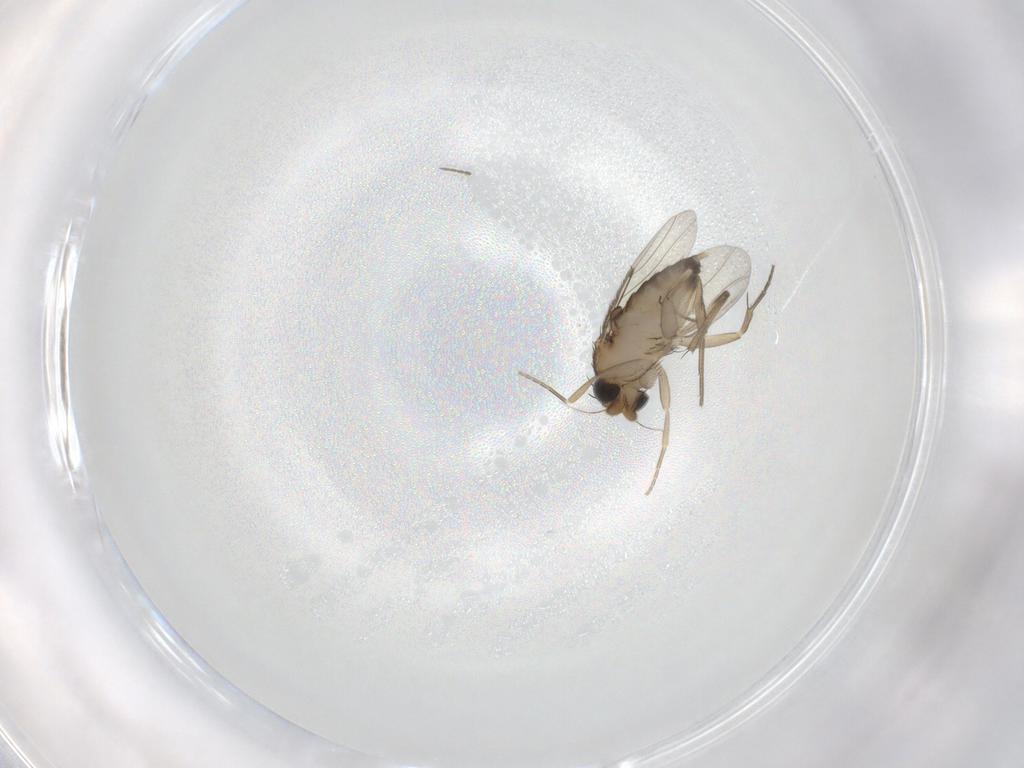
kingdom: Animalia
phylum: Arthropoda
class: Insecta
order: Diptera
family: Phoridae
